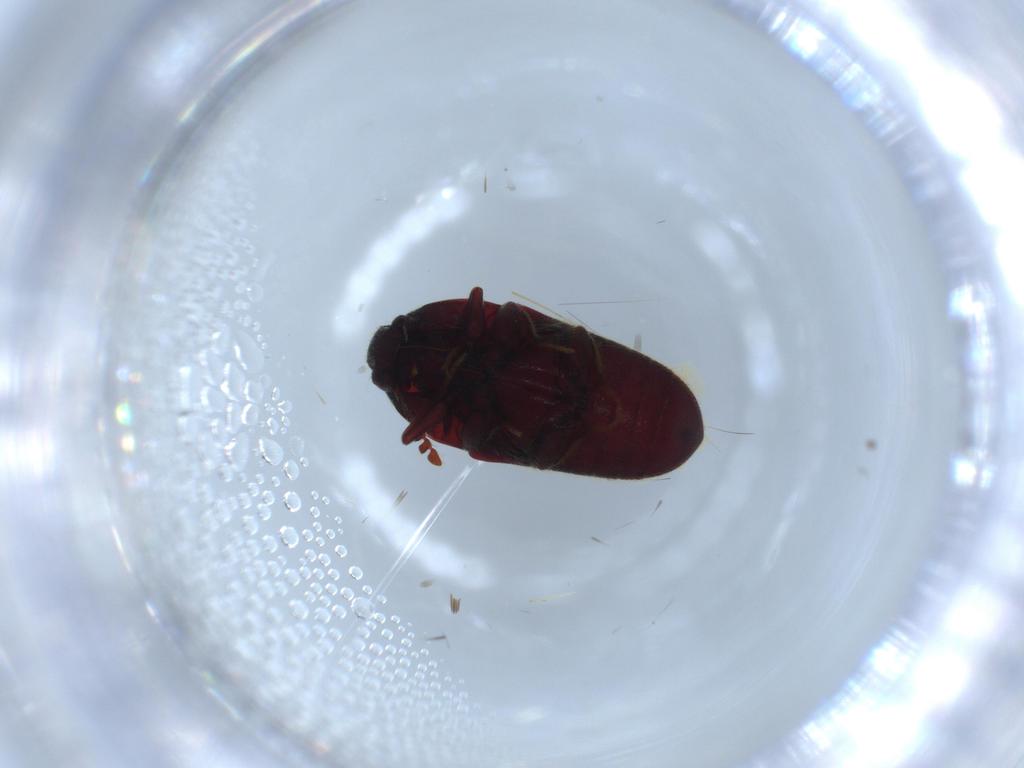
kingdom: Animalia
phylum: Arthropoda
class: Insecta
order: Coleoptera
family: Throscidae
